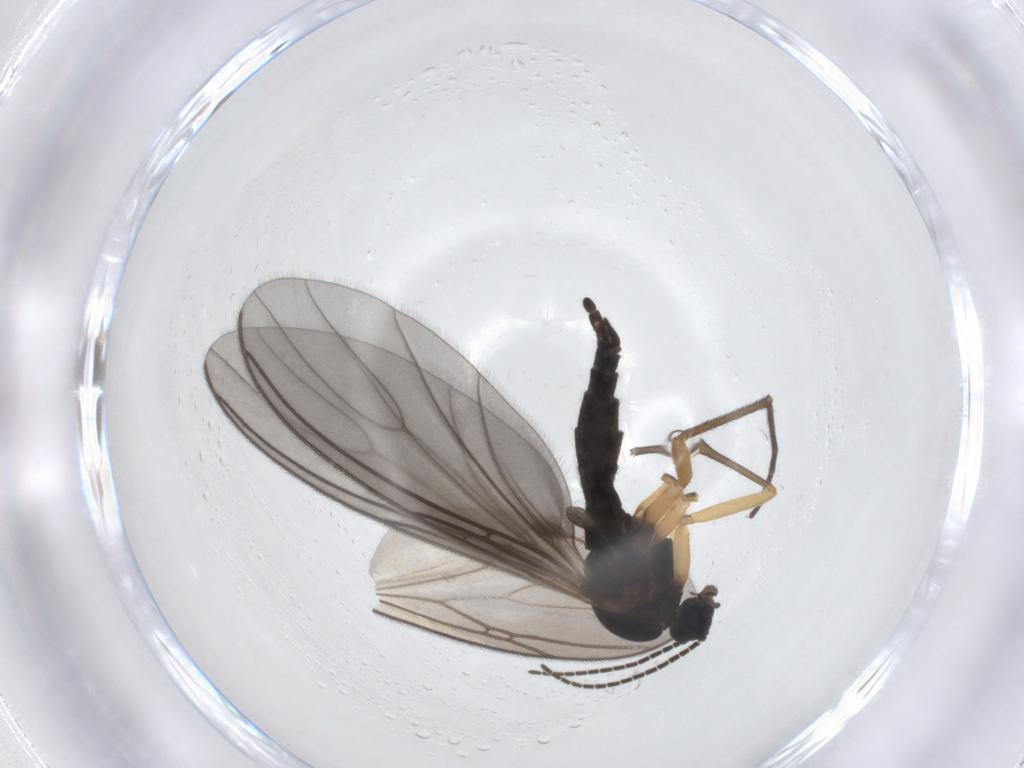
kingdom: Animalia
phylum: Arthropoda
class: Insecta
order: Diptera
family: Sciaridae
